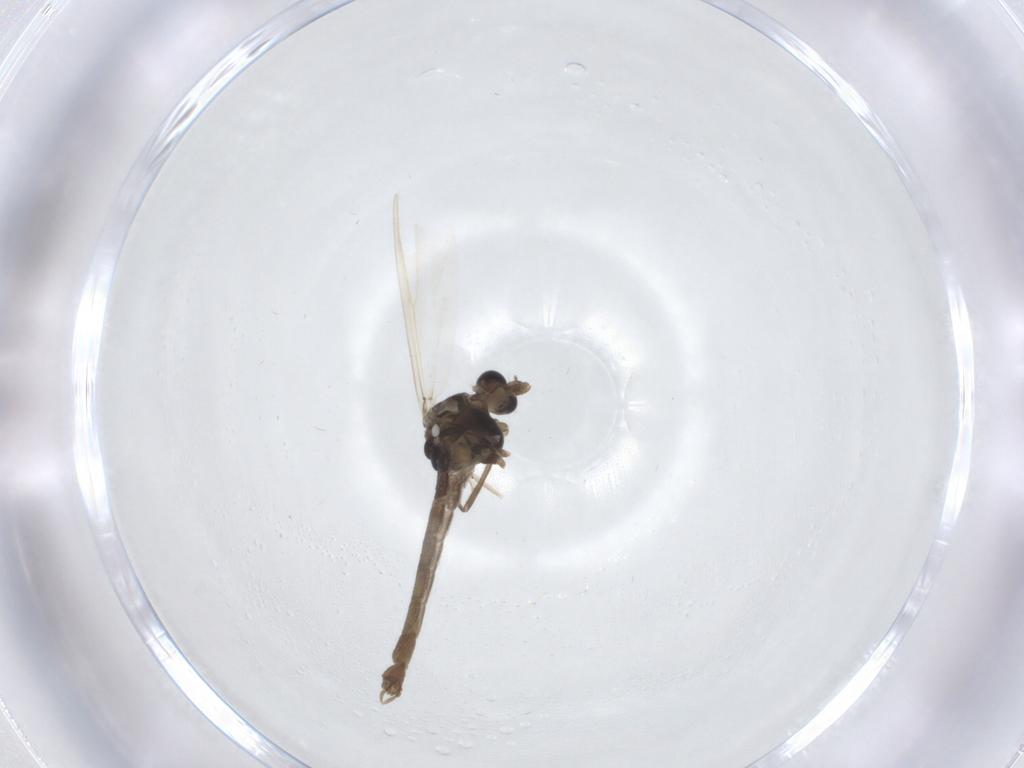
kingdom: Animalia
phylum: Arthropoda
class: Insecta
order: Diptera
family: Chironomidae
